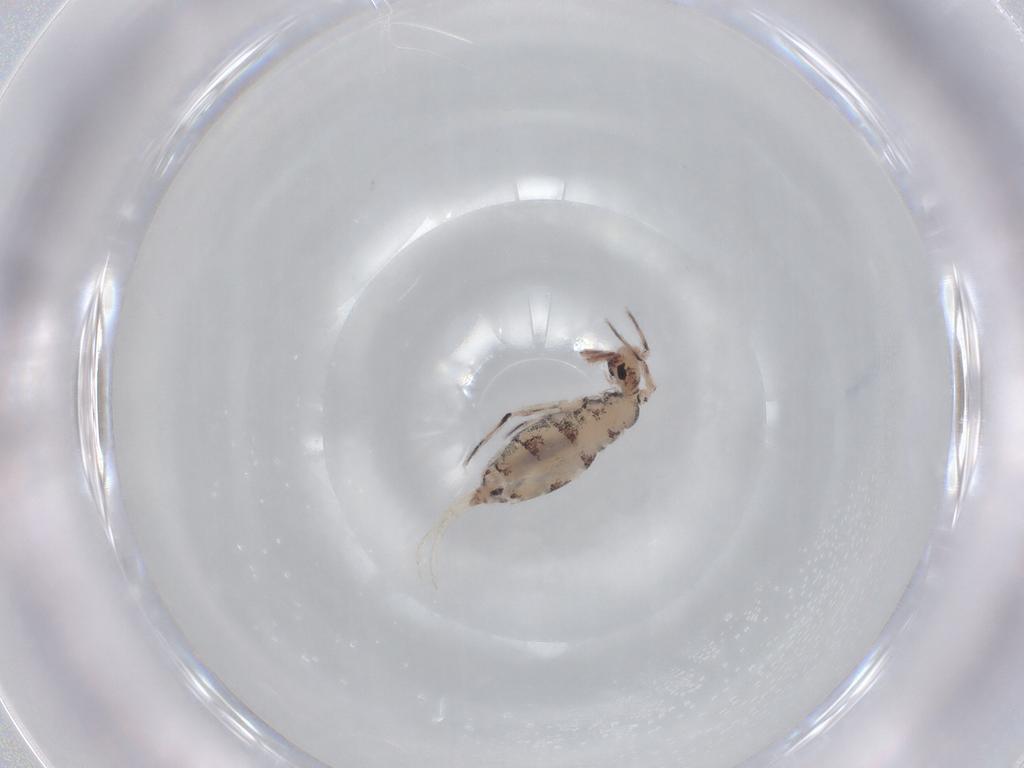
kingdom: Animalia
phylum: Arthropoda
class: Collembola
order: Entomobryomorpha
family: Entomobryidae
